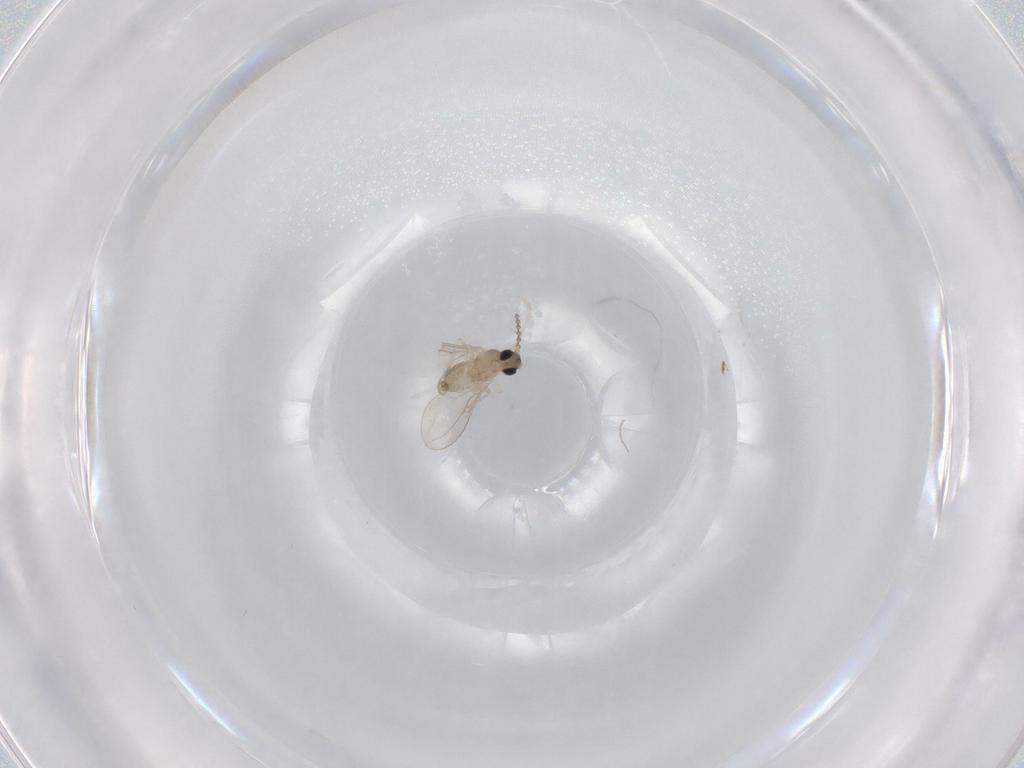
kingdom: Animalia
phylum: Arthropoda
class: Insecta
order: Diptera
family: Cecidomyiidae
